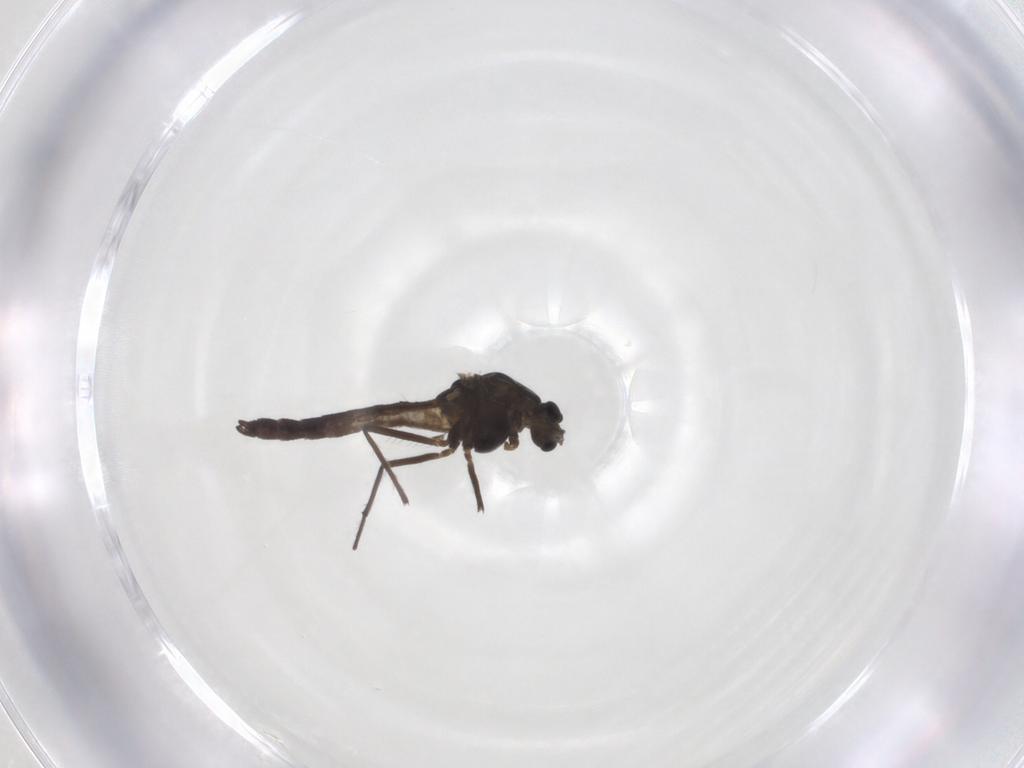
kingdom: Animalia
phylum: Arthropoda
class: Insecta
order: Diptera
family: Chironomidae
